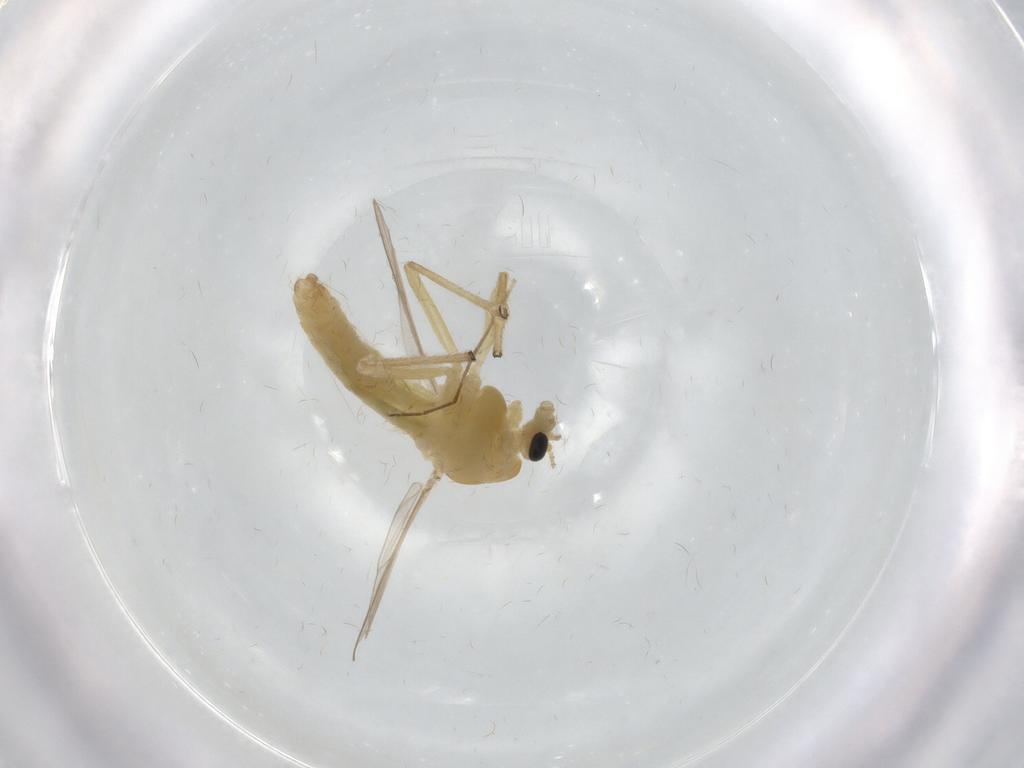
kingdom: Animalia
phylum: Arthropoda
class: Insecta
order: Diptera
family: Chironomidae
